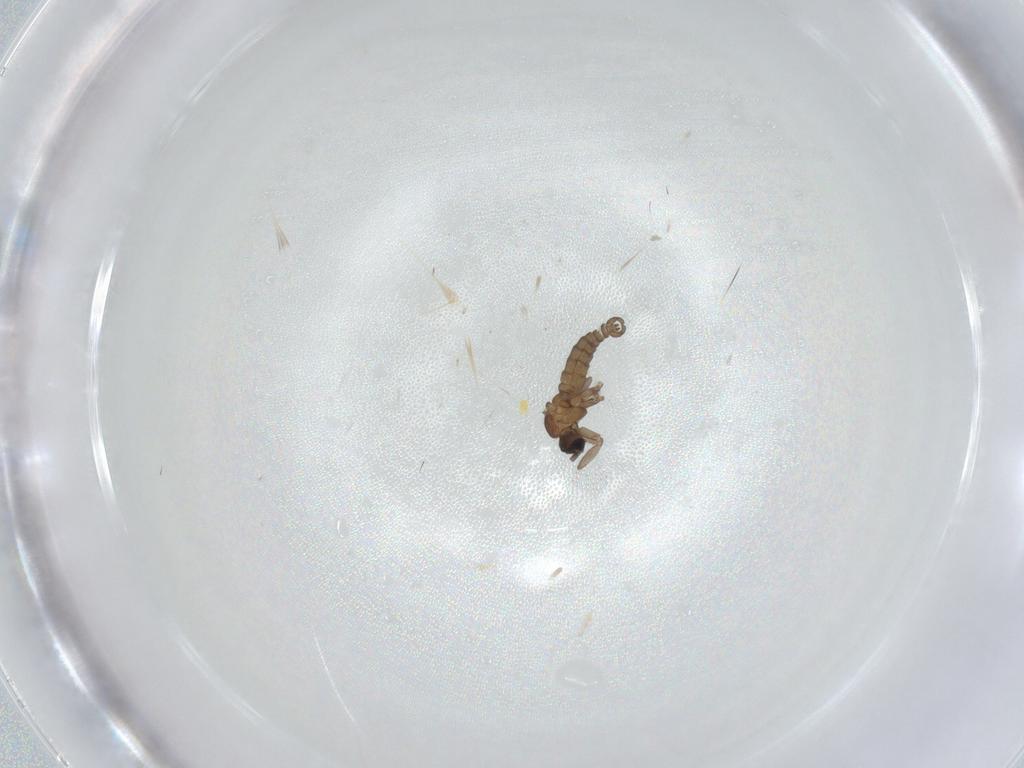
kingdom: Animalia
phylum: Arthropoda
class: Insecta
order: Diptera
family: Sciaridae
